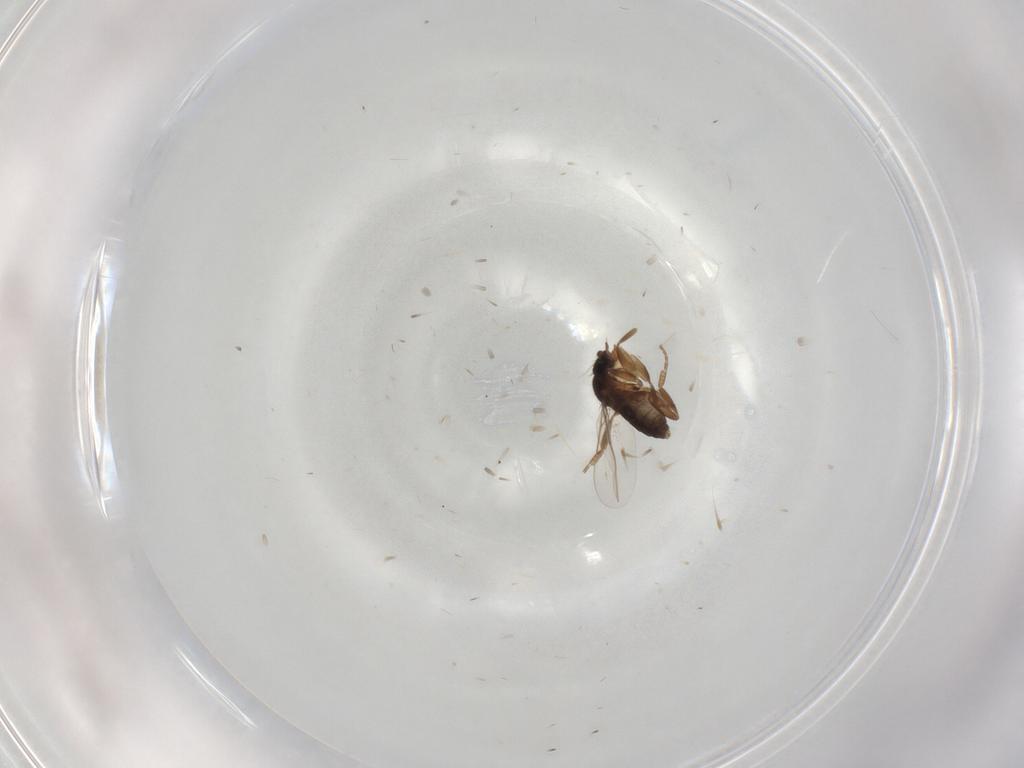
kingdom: Animalia
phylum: Arthropoda
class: Insecta
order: Diptera
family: Phoridae
